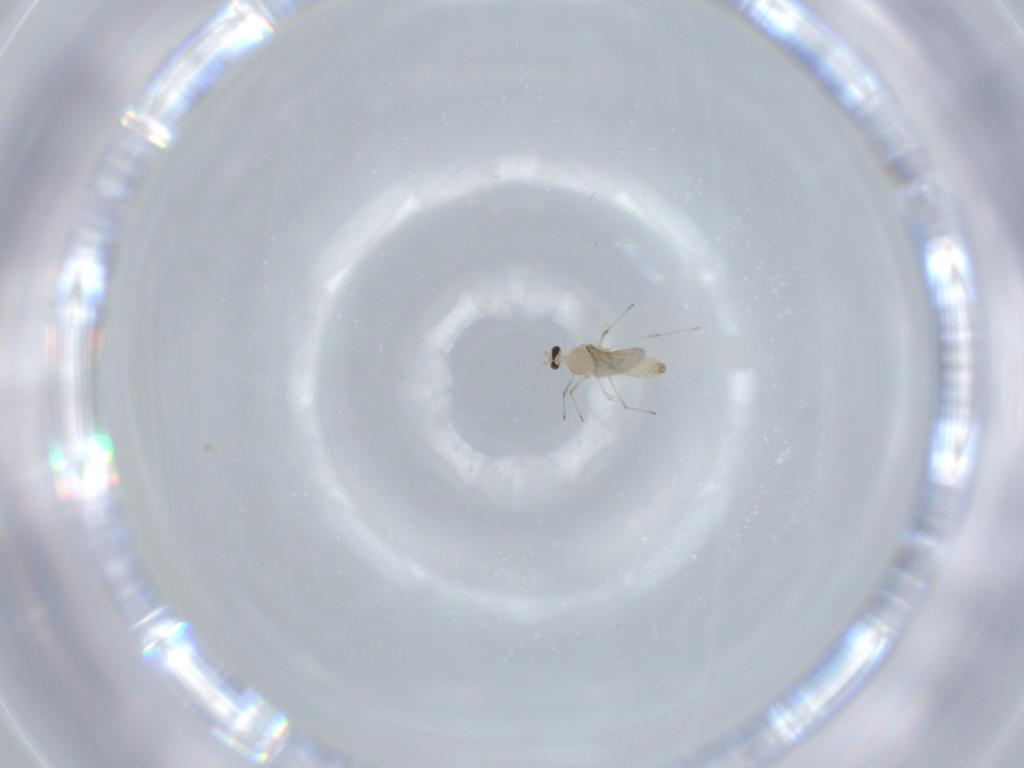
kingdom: Animalia
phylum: Arthropoda
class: Insecta
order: Diptera
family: Cecidomyiidae
